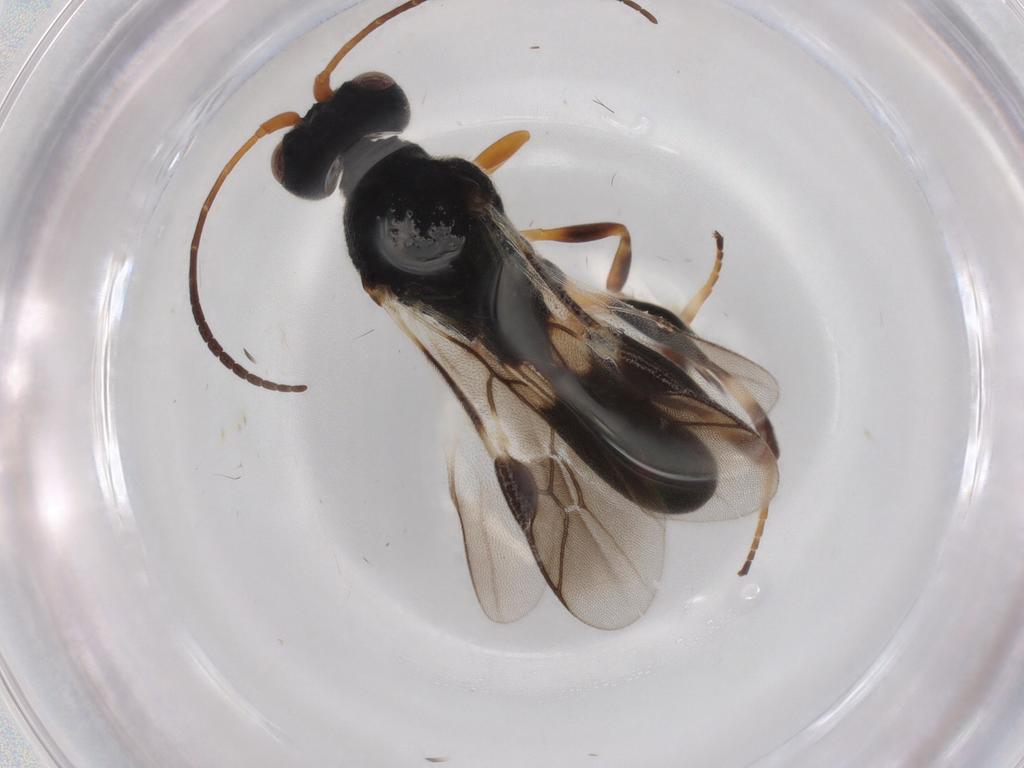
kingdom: Animalia
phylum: Arthropoda
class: Insecta
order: Hymenoptera
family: Braconidae
